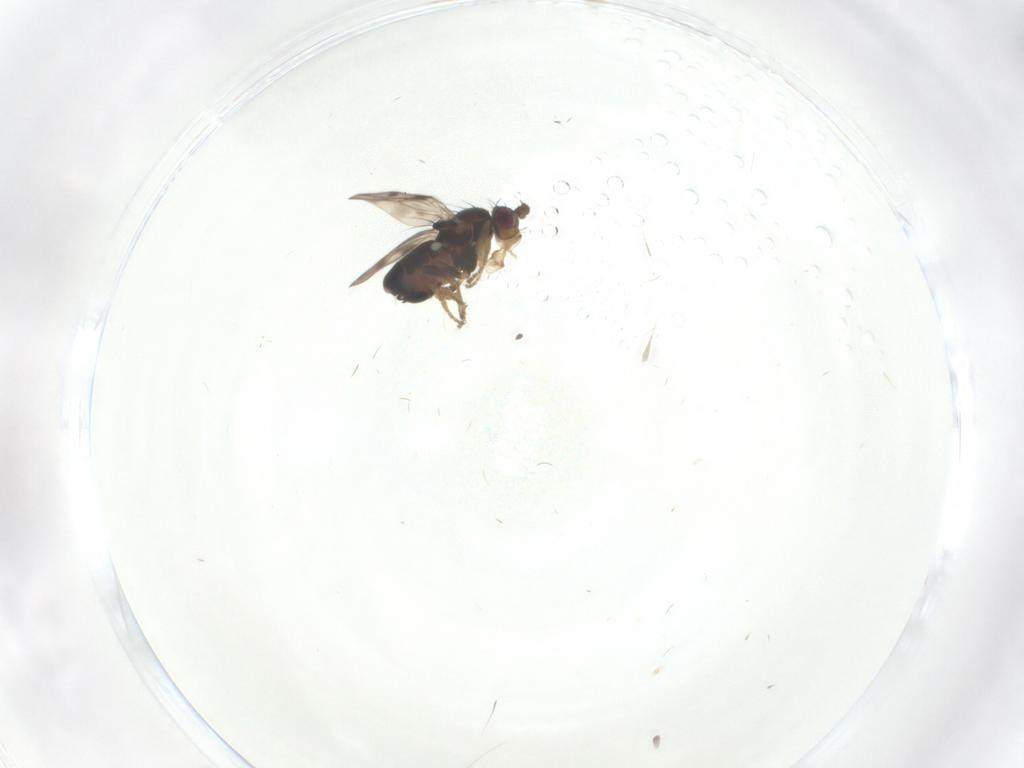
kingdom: Animalia
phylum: Arthropoda
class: Insecta
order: Diptera
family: Sphaeroceridae
